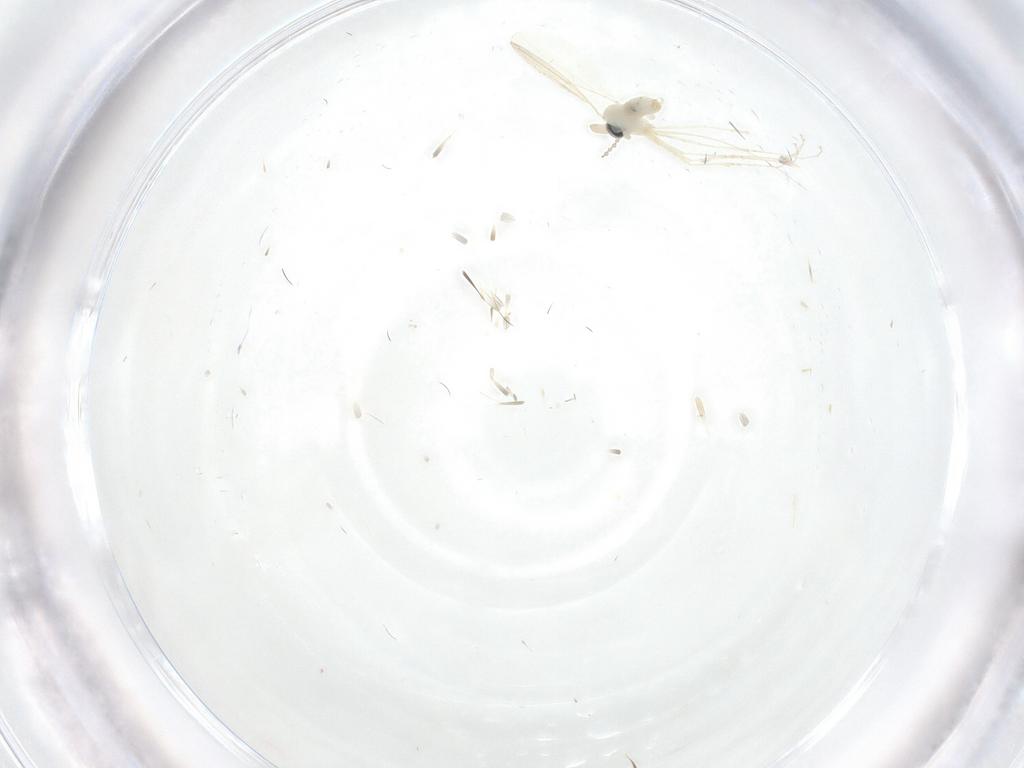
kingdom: Animalia
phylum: Arthropoda
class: Insecta
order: Diptera
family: Cecidomyiidae
